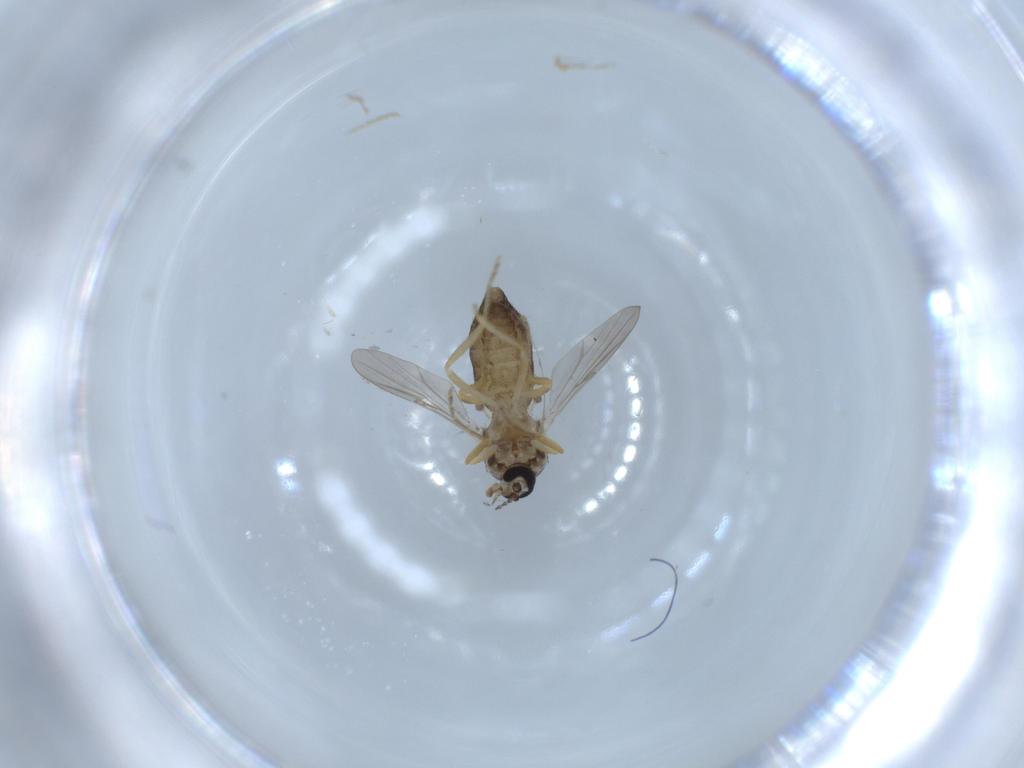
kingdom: Animalia
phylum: Arthropoda
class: Insecta
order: Diptera
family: Ceratopogonidae
